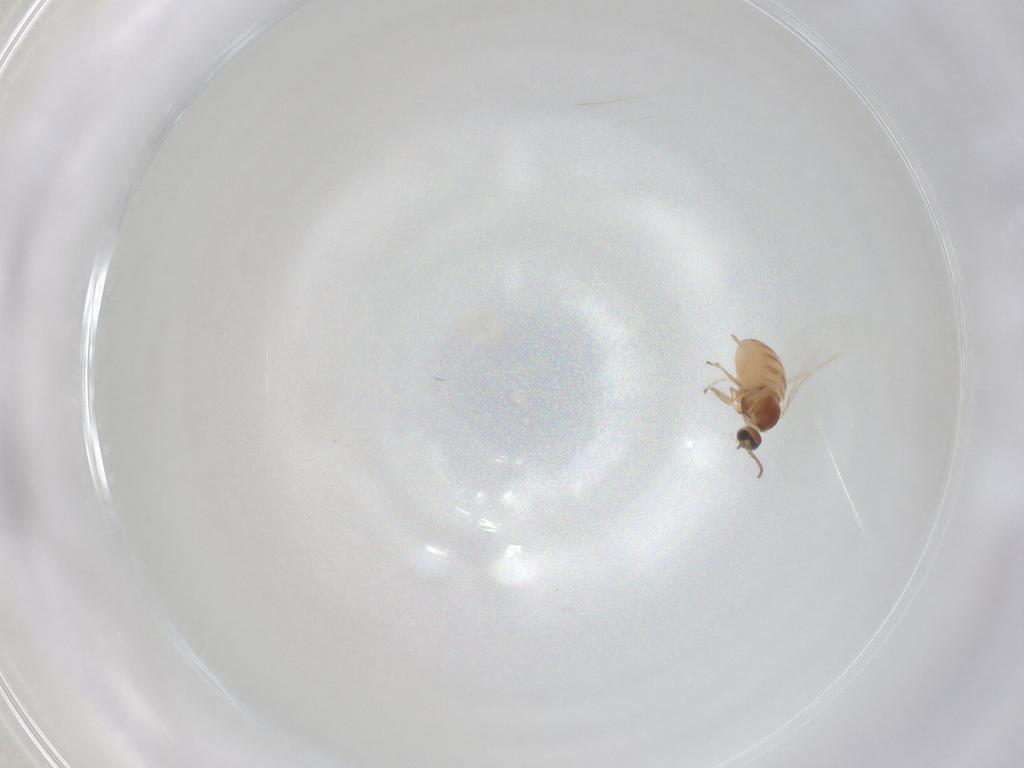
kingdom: Animalia
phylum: Arthropoda
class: Insecta
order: Diptera
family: Cecidomyiidae
